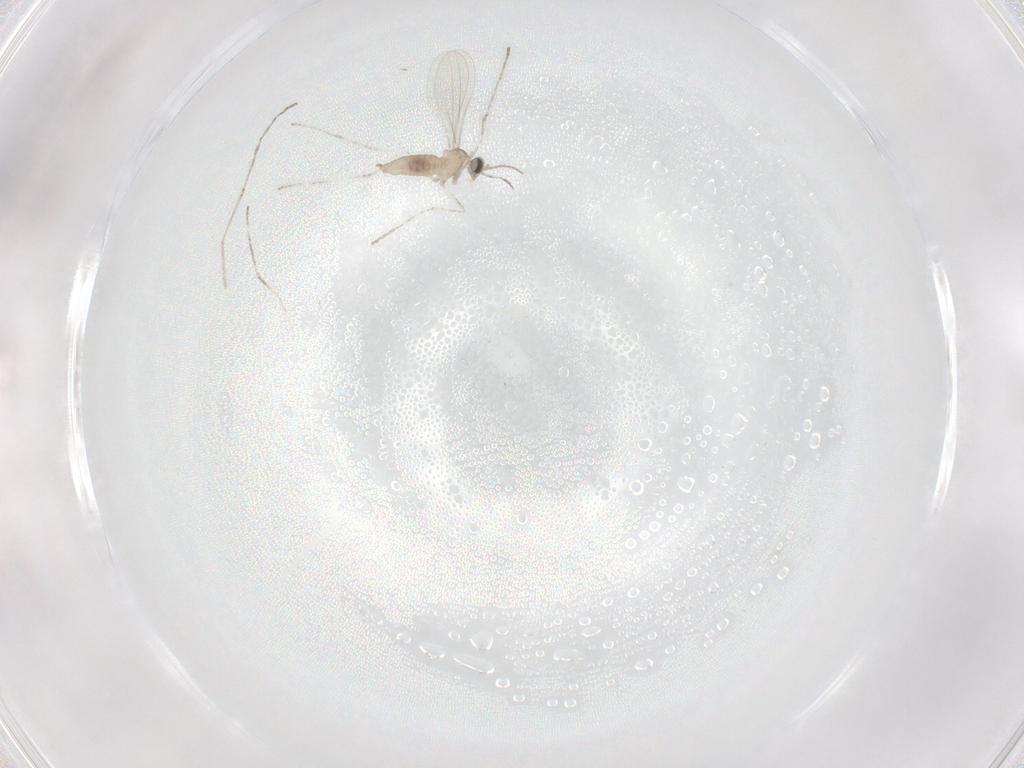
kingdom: Animalia
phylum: Arthropoda
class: Insecta
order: Diptera
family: Cecidomyiidae
